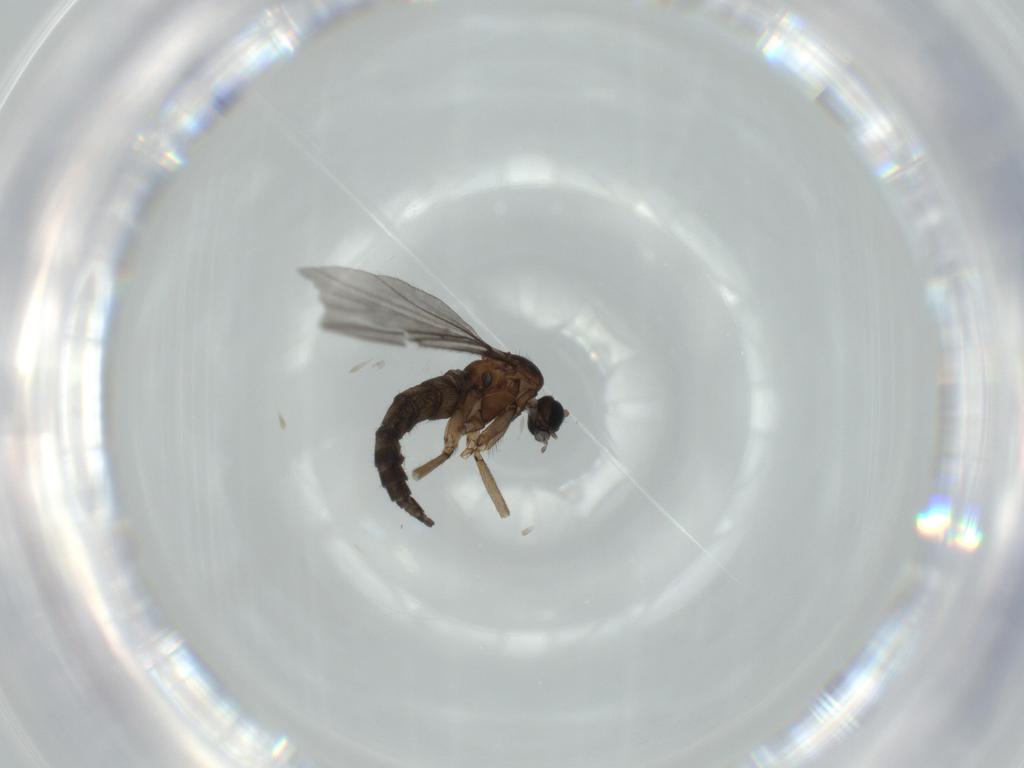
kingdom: Animalia
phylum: Arthropoda
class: Insecta
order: Diptera
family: Sciaridae
